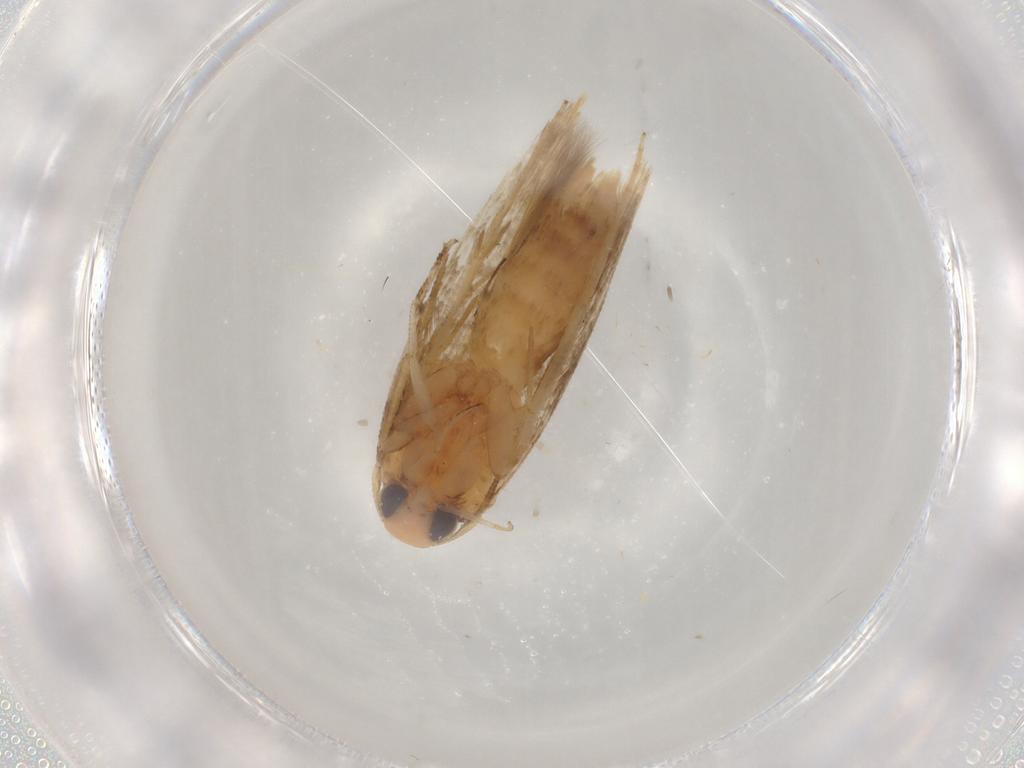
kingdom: Animalia
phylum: Arthropoda
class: Insecta
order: Lepidoptera
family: Crambidae
